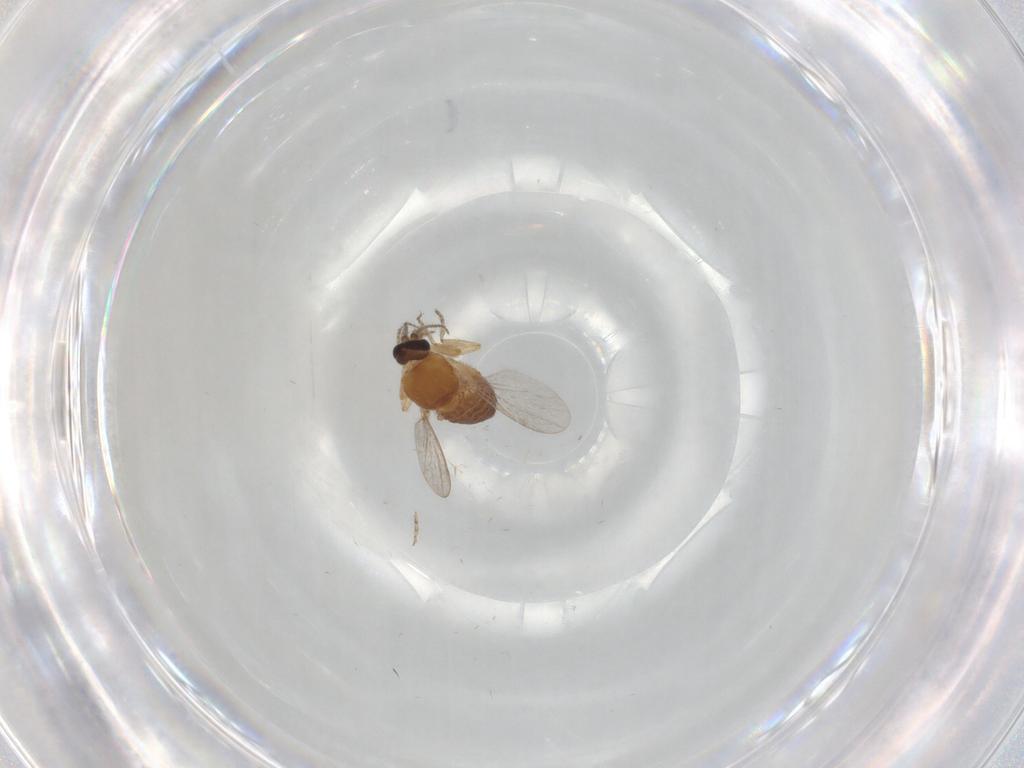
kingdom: Animalia
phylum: Arthropoda
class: Insecta
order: Diptera
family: Ceratopogonidae
